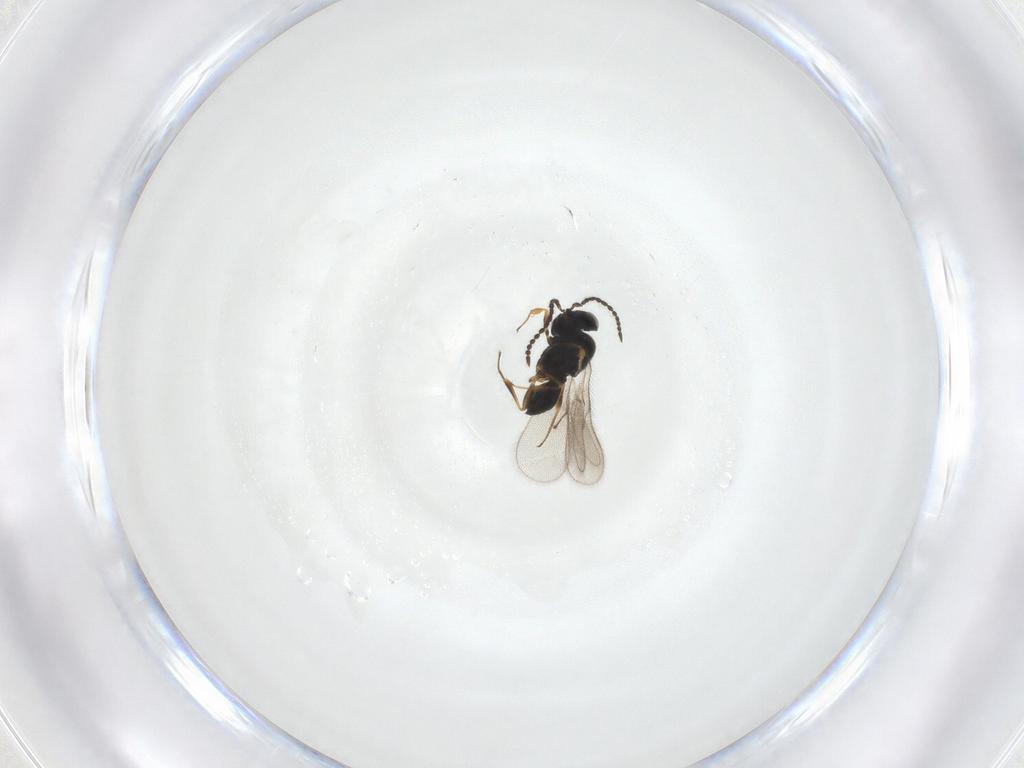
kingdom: Animalia
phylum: Arthropoda
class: Insecta
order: Hymenoptera
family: Scelionidae
